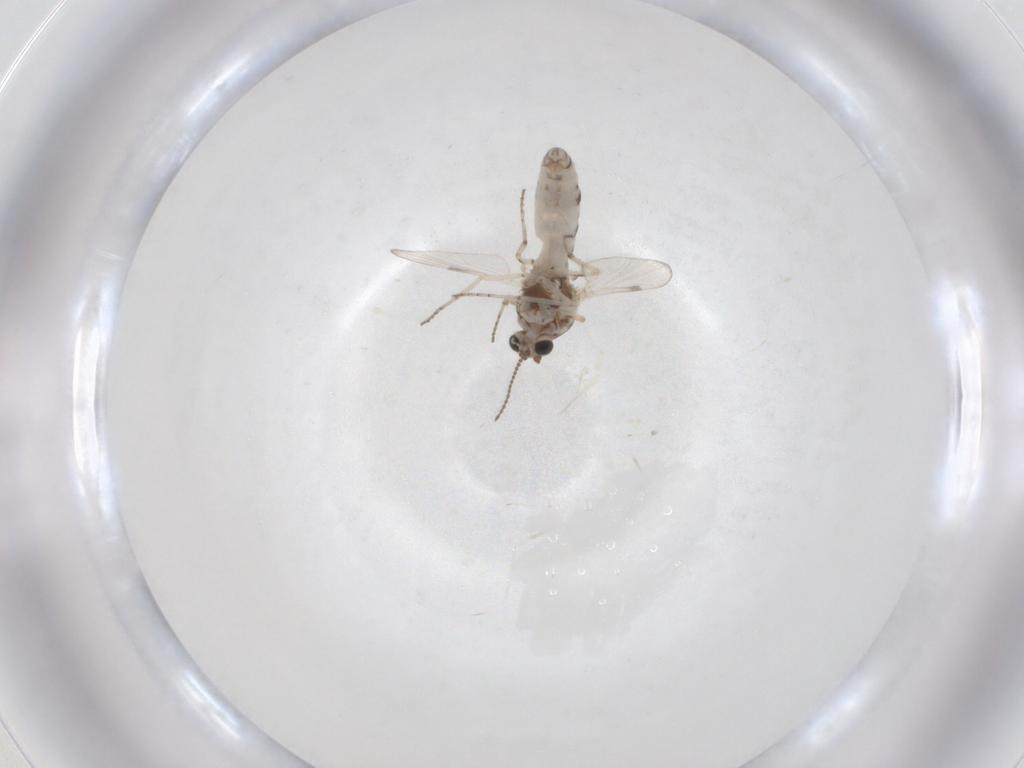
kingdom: Animalia
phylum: Arthropoda
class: Insecta
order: Diptera
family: Ceratopogonidae
